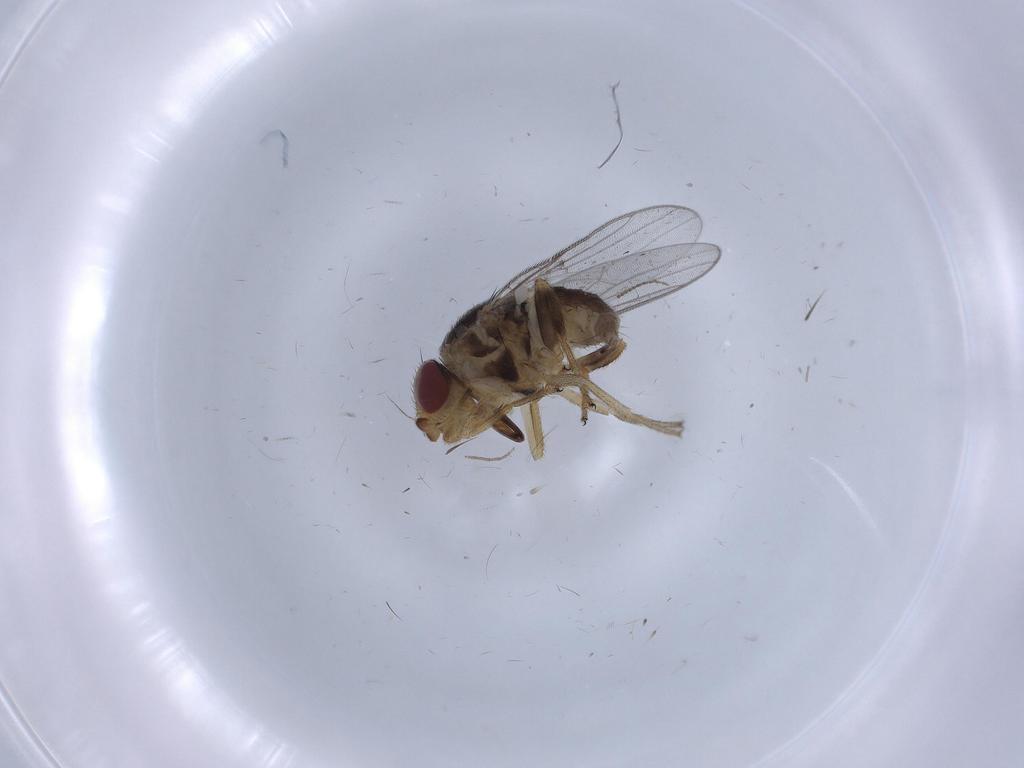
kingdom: Animalia
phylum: Arthropoda
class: Insecta
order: Diptera
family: Chloropidae
